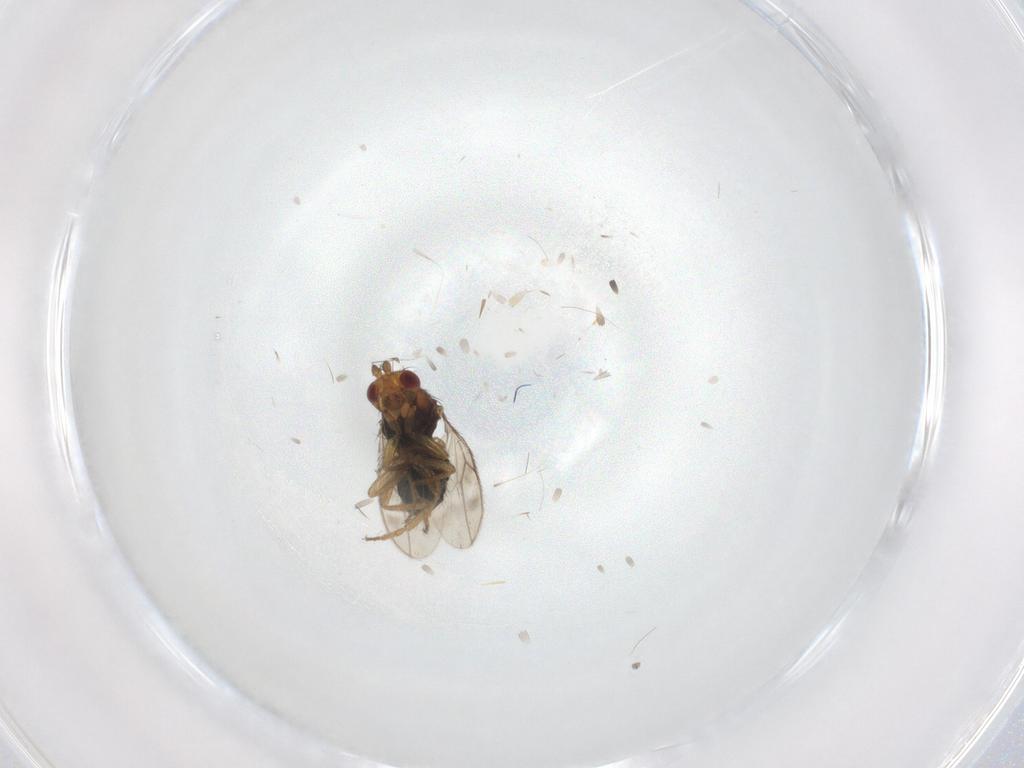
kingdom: Animalia
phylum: Arthropoda
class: Insecta
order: Diptera
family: Sphaeroceridae
